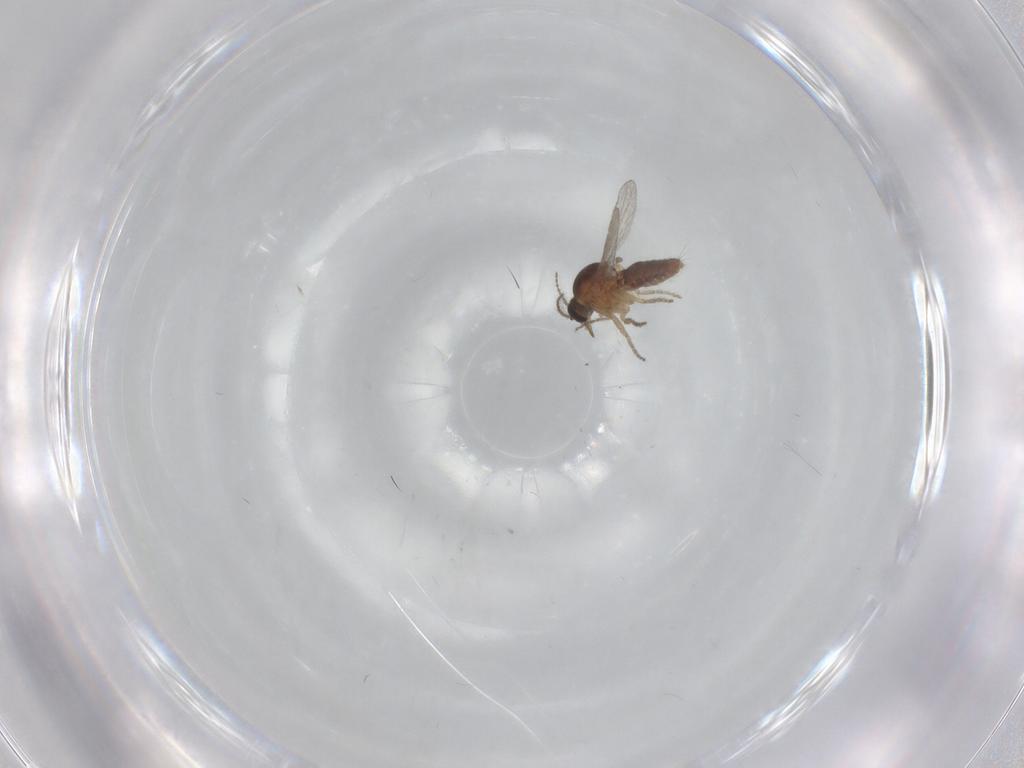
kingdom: Animalia
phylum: Arthropoda
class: Insecta
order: Diptera
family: Ceratopogonidae
